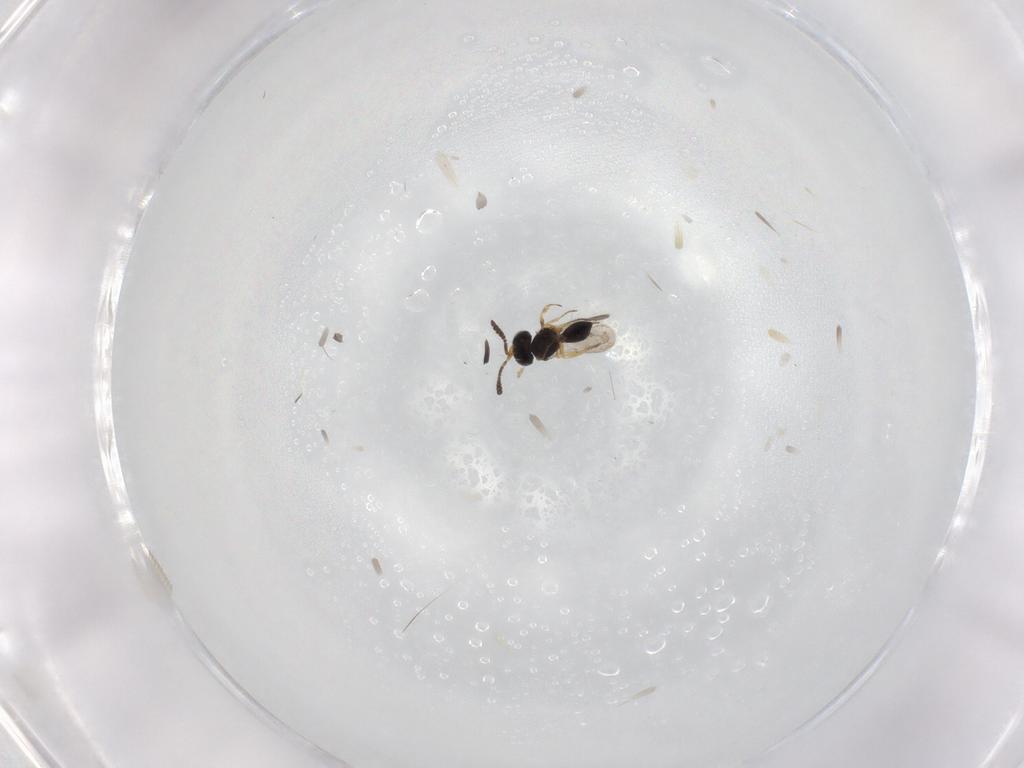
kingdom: Animalia
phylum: Arthropoda
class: Insecta
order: Hymenoptera
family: Scelionidae
